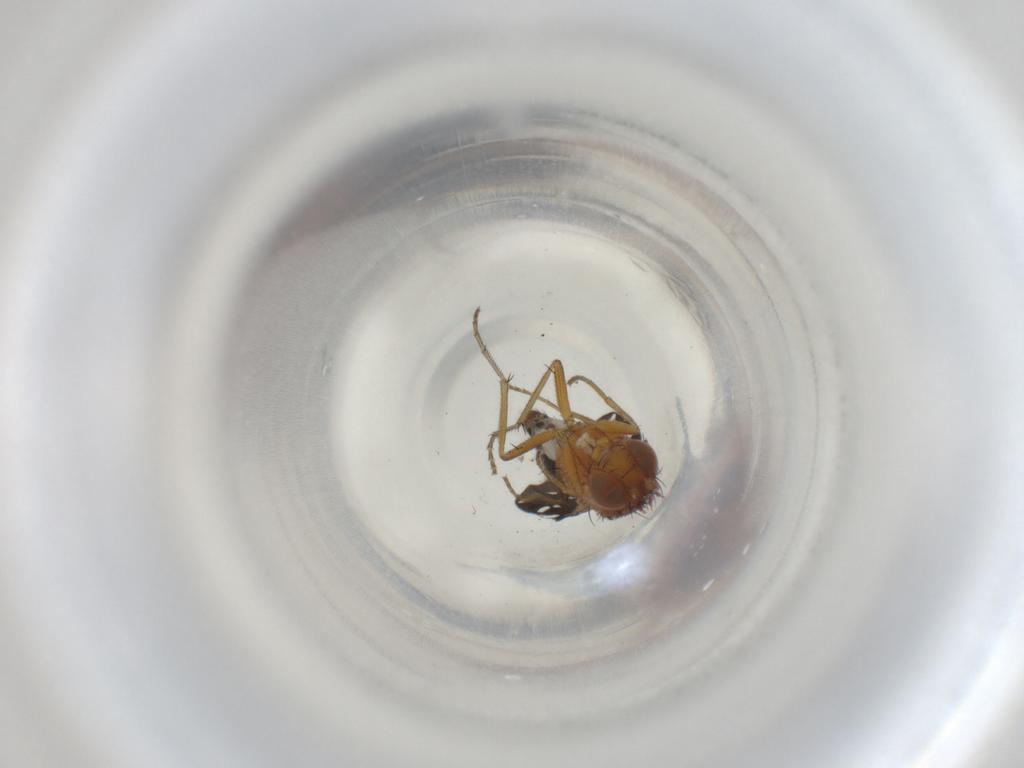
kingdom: Animalia
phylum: Arthropoda
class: Insecta
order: Diptera
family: Ephydridae
